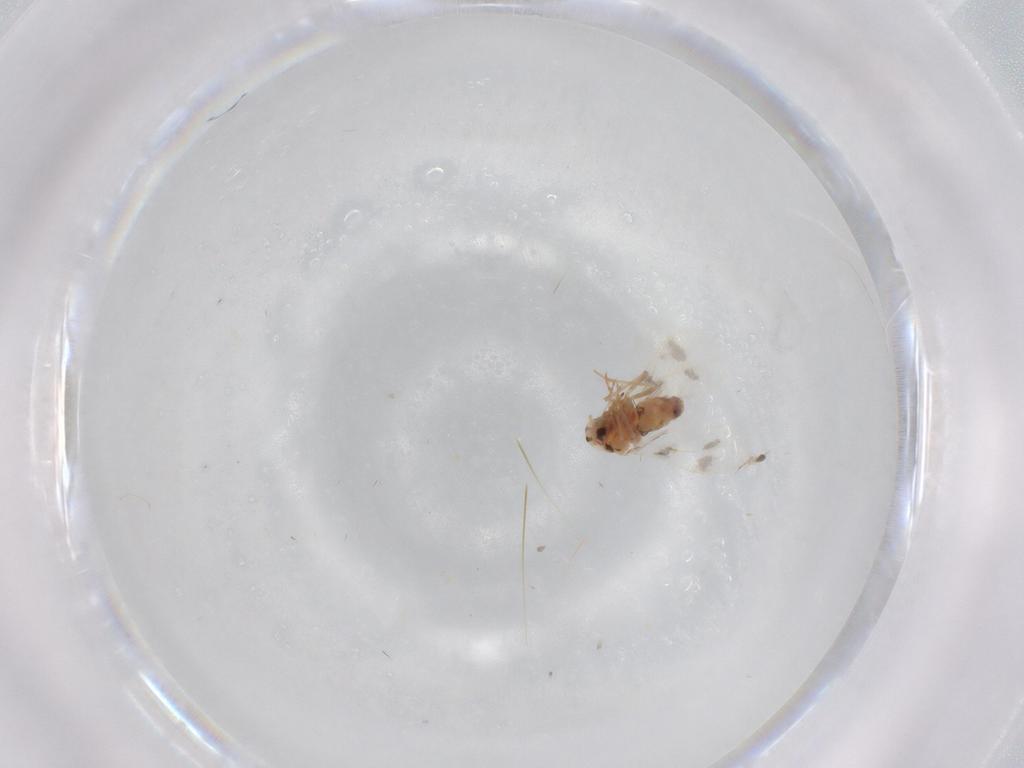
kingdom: Animalia
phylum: Arthropoda
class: Insecta
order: Hemiptera
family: Aleyrodidae
